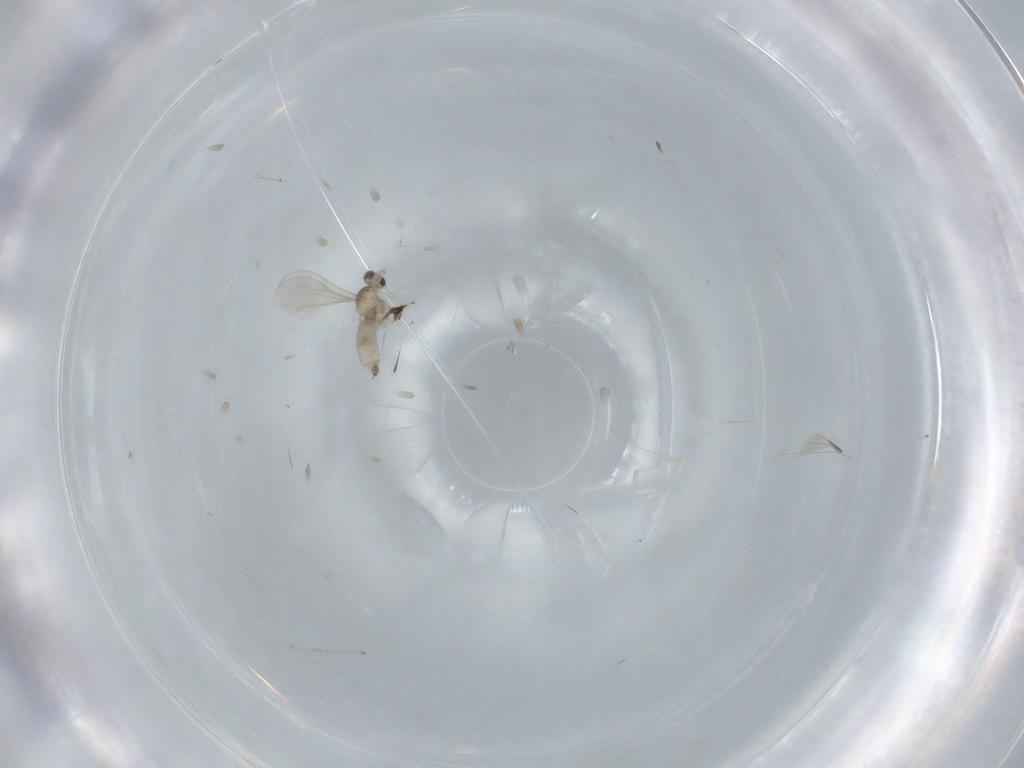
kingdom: Animalia
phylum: Arthropoda
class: Insecta
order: Diptera
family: Cecidomyiidae
